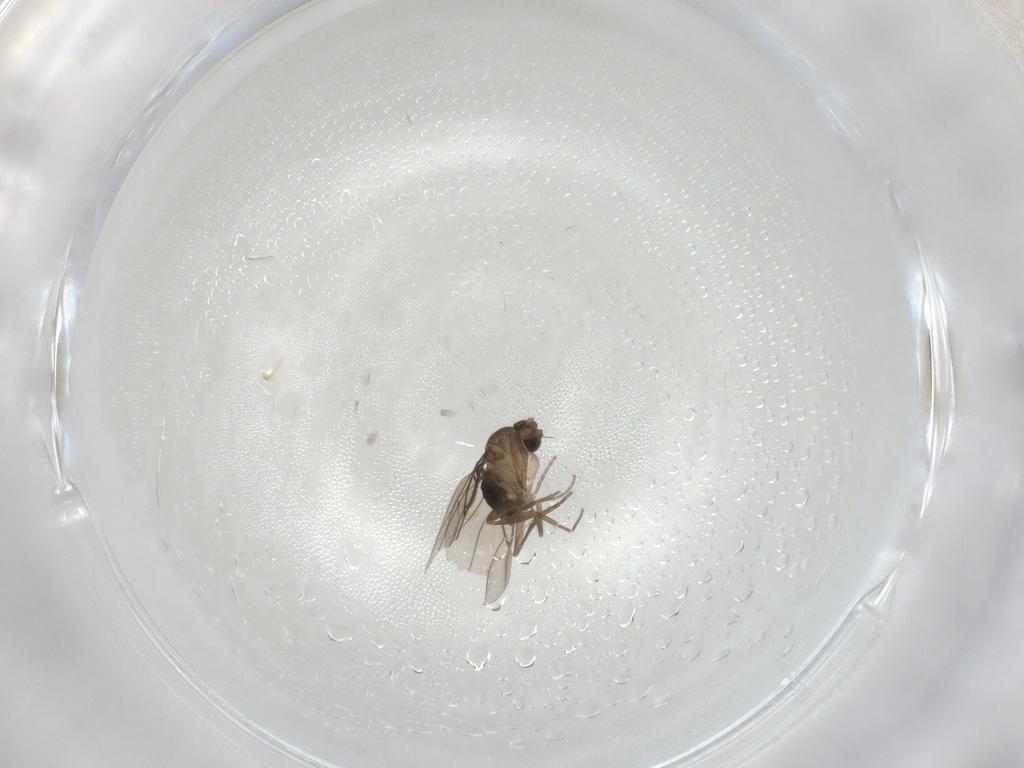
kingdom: Animalia
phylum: Arthropoda
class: Insecta
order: Diptera
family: Phoridae
